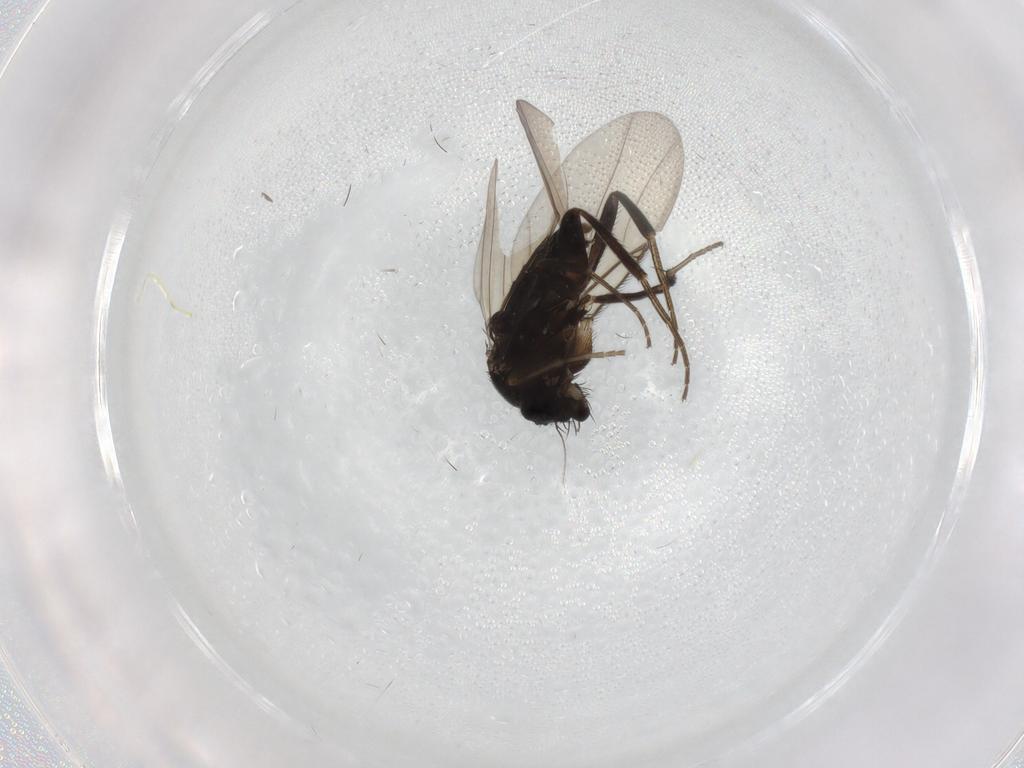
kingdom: Animalia
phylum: Arthropoda
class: Insecta
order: Diptera
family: Phoridae
